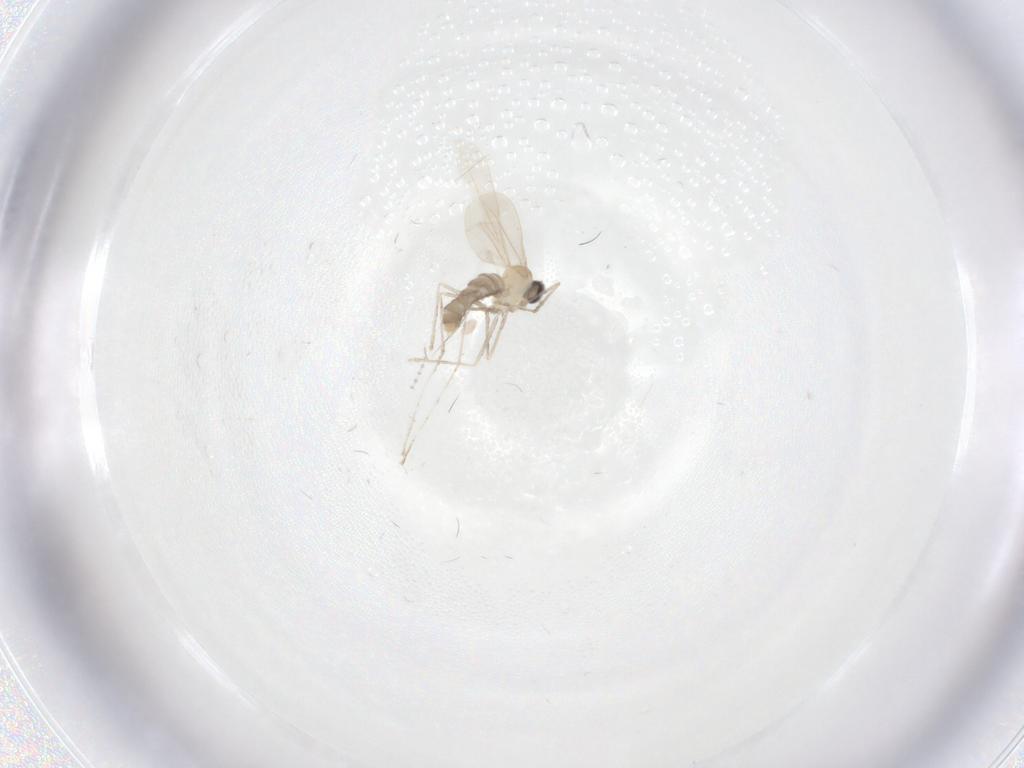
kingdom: Animalia
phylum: Arthropoda
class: Insecta
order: Diptera
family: Cecidomyiidae
